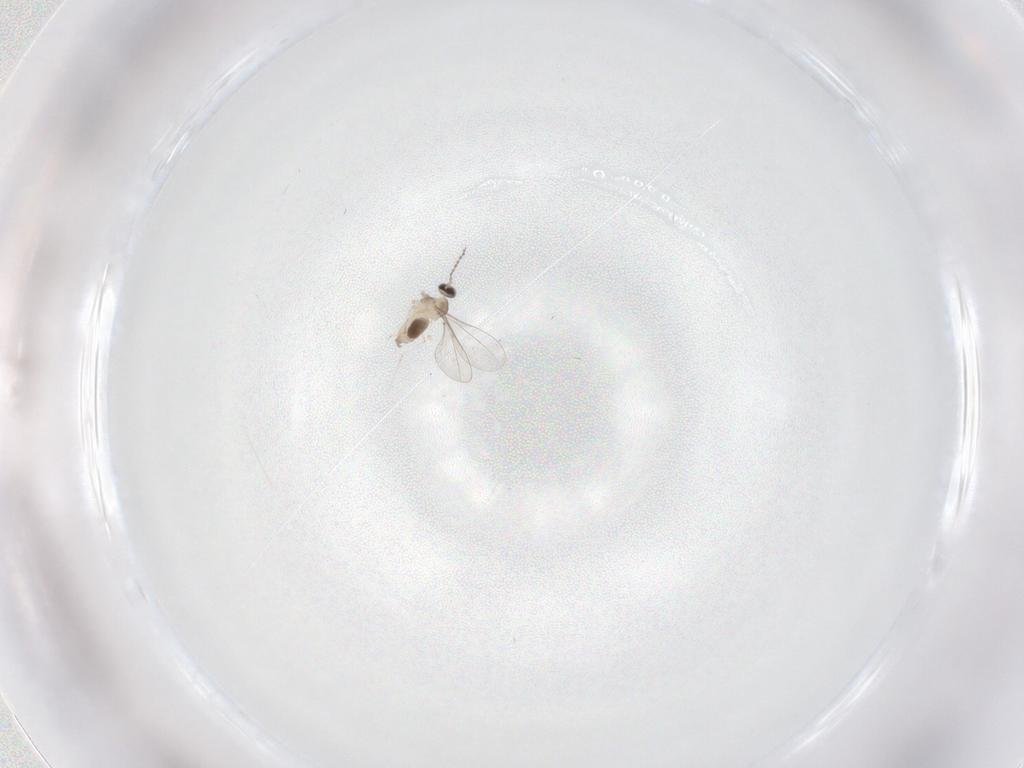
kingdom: Animalia
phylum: Arthropoda
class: Insecta
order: Diptera
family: Cecidomyiidae
